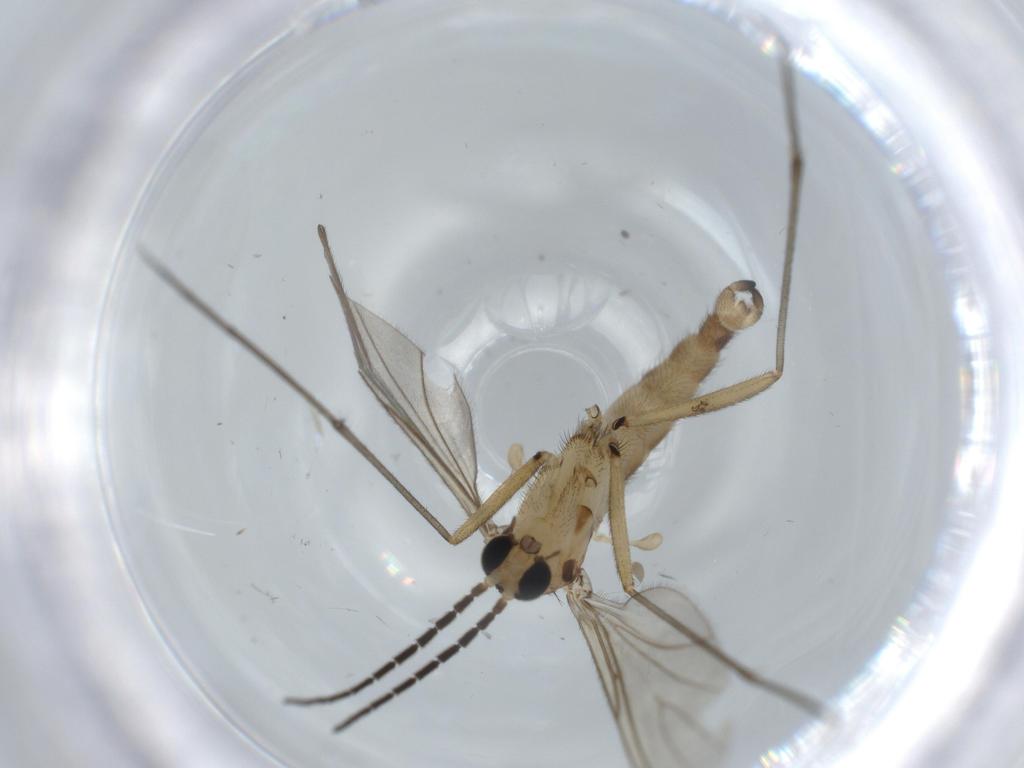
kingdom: Animalia
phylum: Arthropoda
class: Insecta
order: Diptera
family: Sciaridae
